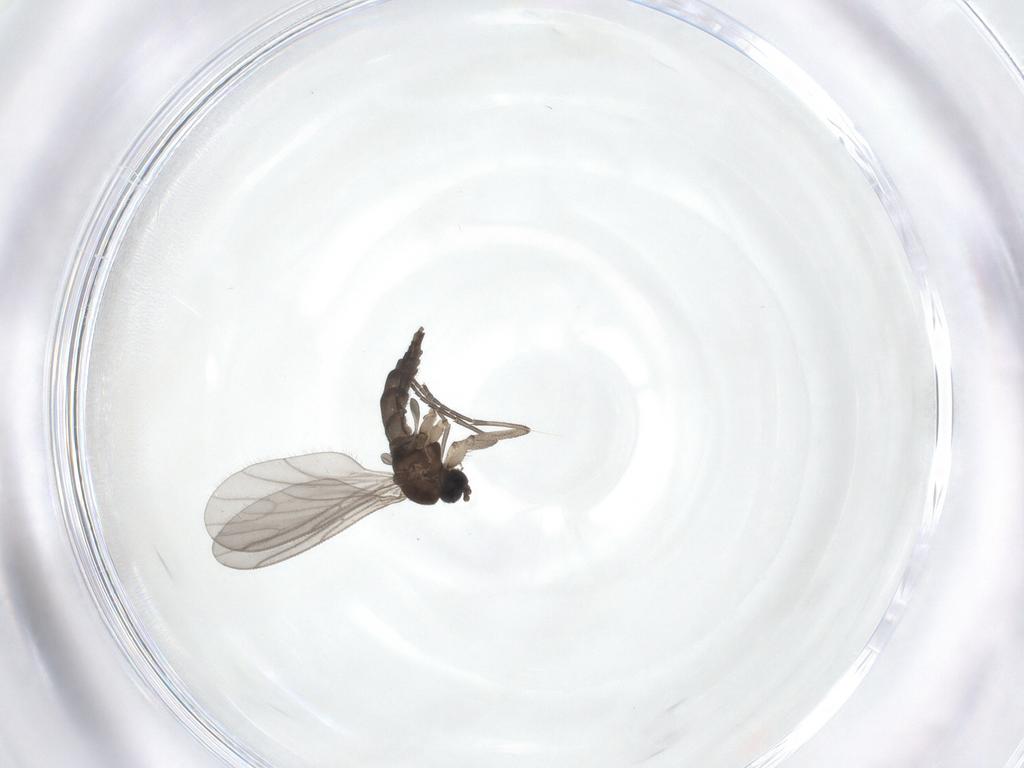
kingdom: Animalia
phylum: Arthropoda
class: Insecta
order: Diptera
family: Sciaridae
